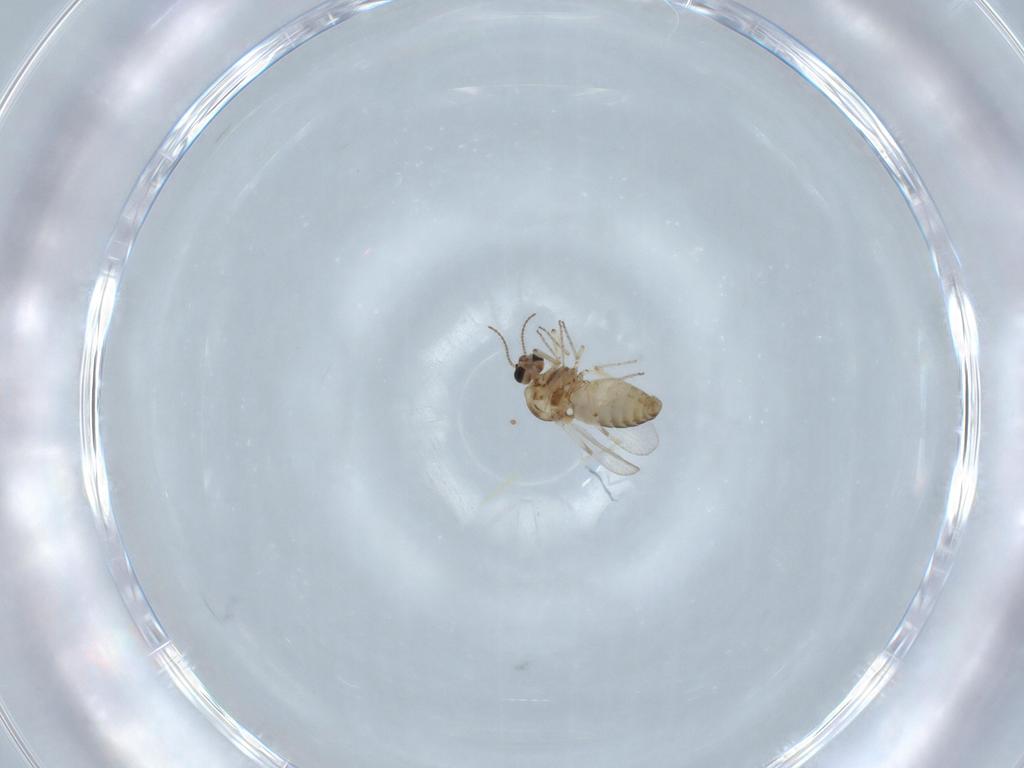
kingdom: Animalia
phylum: Arthropoda
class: Insecta
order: Diptera
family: Ceratopogonidae
